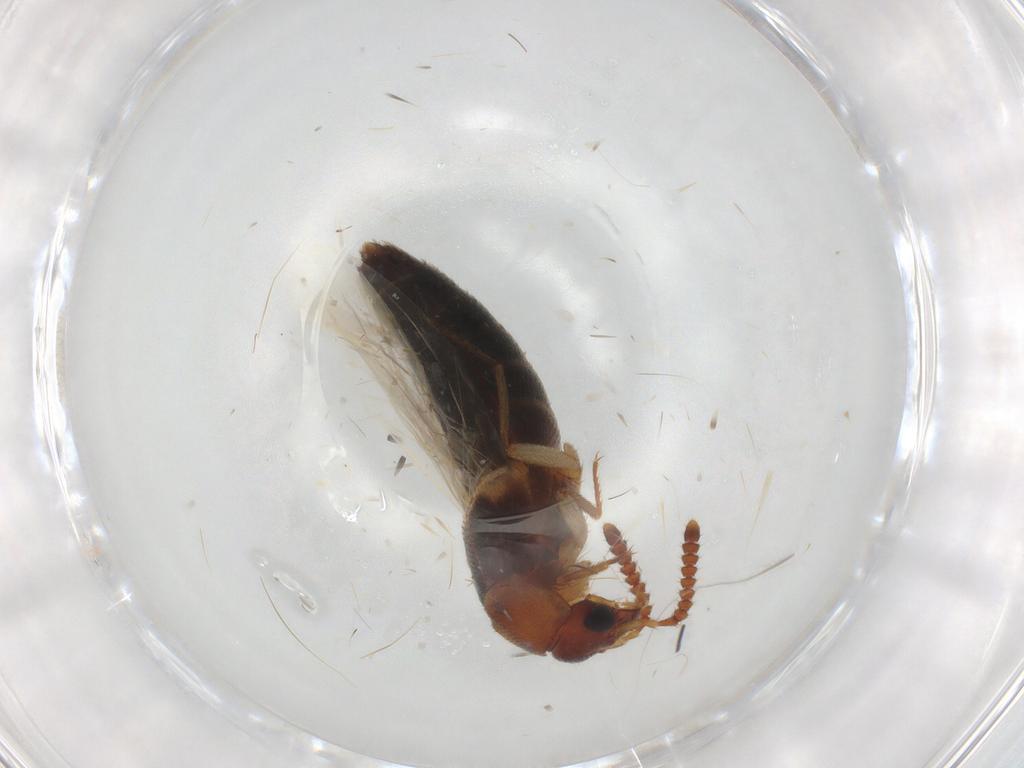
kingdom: Animalia
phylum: Arthropoda
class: Insecta
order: Coleoptera
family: Staphylinidae
